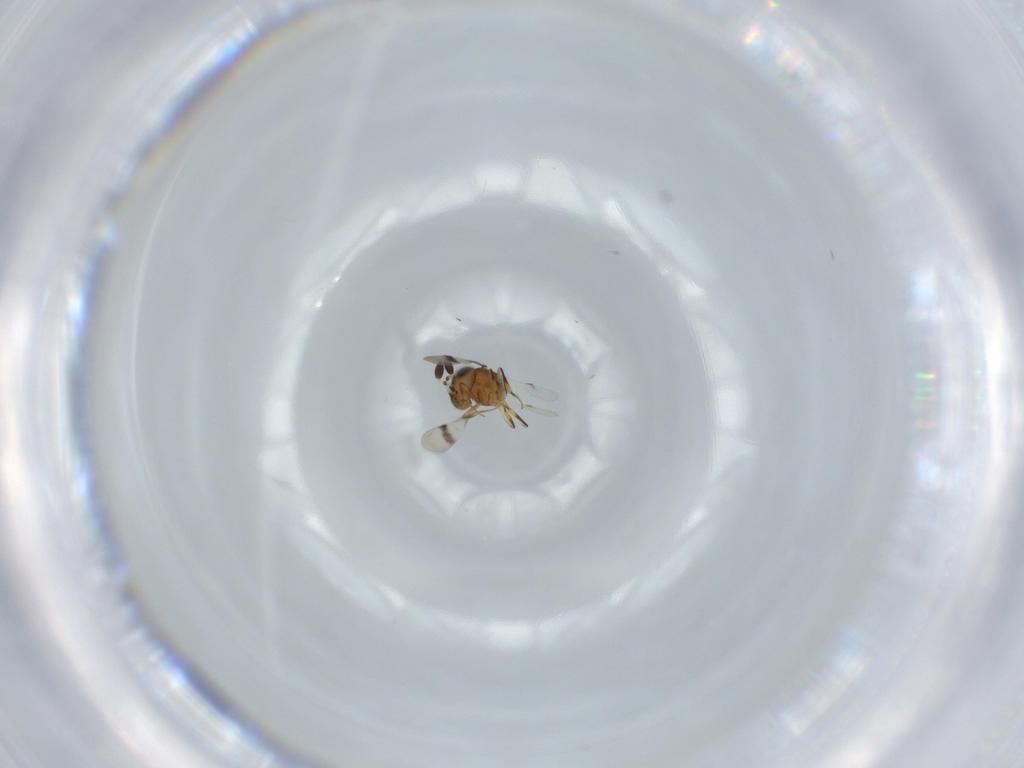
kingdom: Animalia
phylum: Arthropoda
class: Arachnida
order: Araneae
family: Pholcidae
